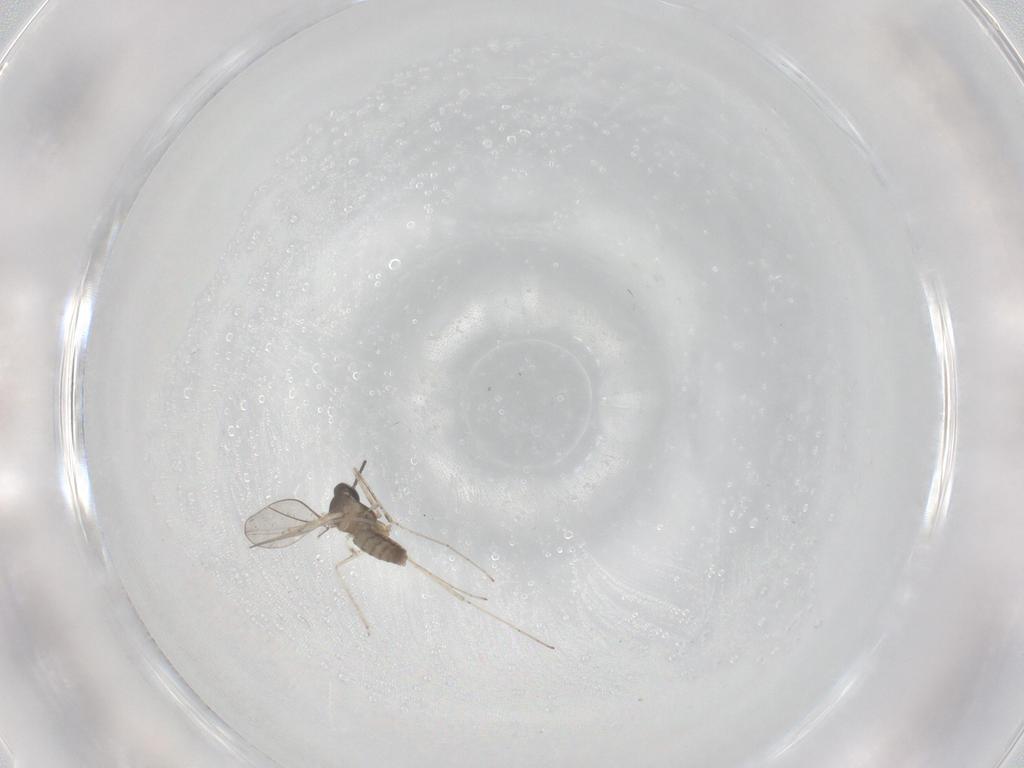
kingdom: Animalia
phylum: Arthropoda
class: Insecta
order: Diptera
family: Cecidomyiidae
